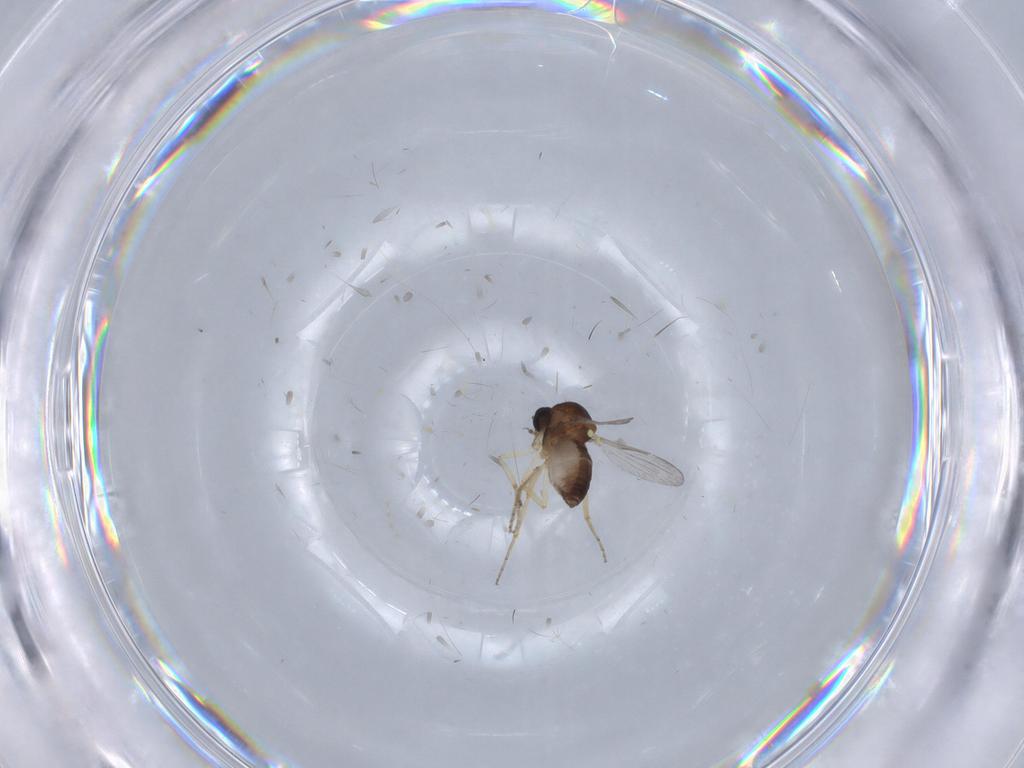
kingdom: Animalia
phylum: Arthropoda
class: Insecta
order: Diptera
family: Ceratopogonidae
